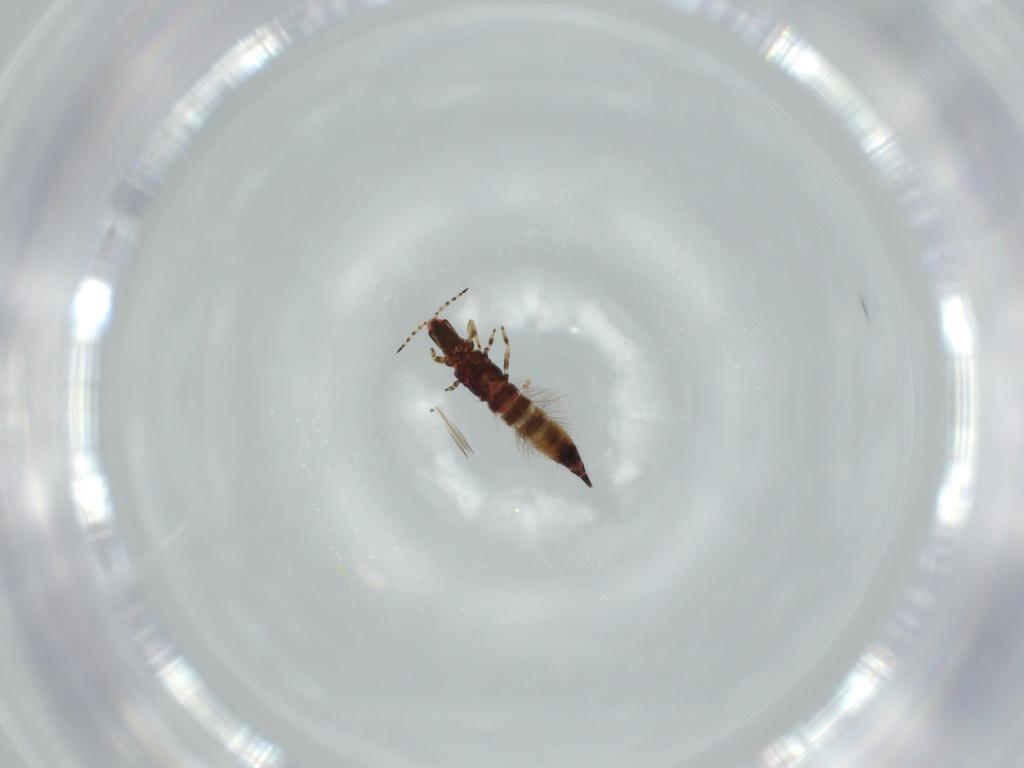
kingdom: Animalia
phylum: Arthropoda
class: Insecta
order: Thysanoptera
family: Phlaeothripidae
